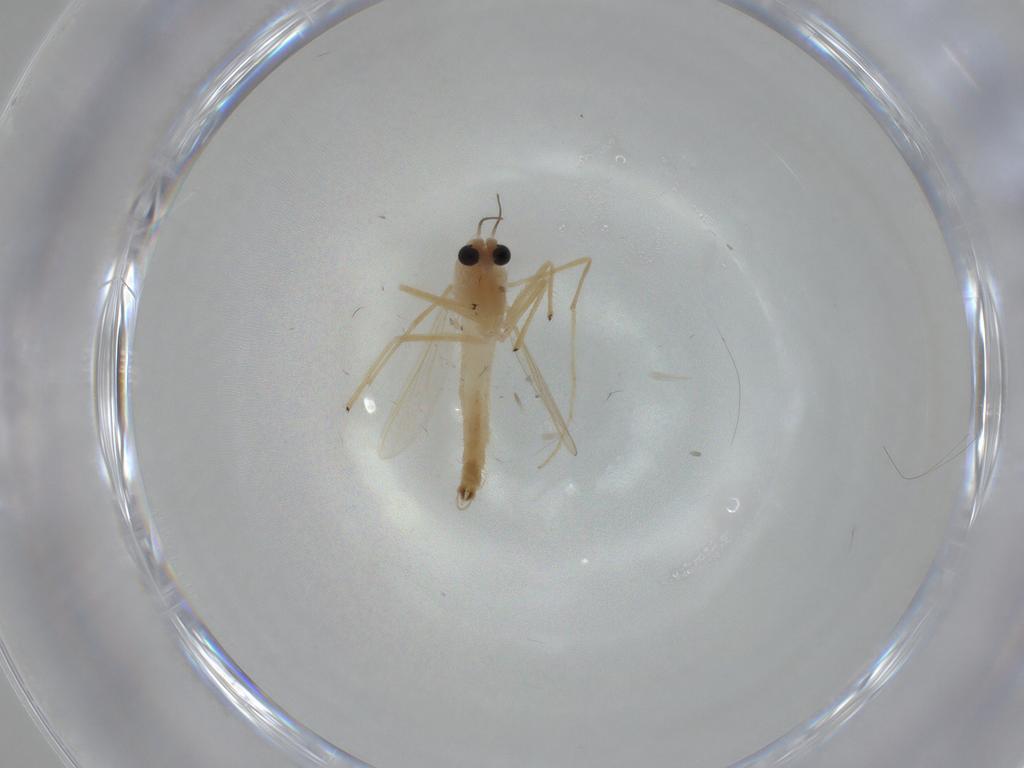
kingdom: Animalia
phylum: Arthropoda
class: Insecta
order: Diptera
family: Chironomidae
